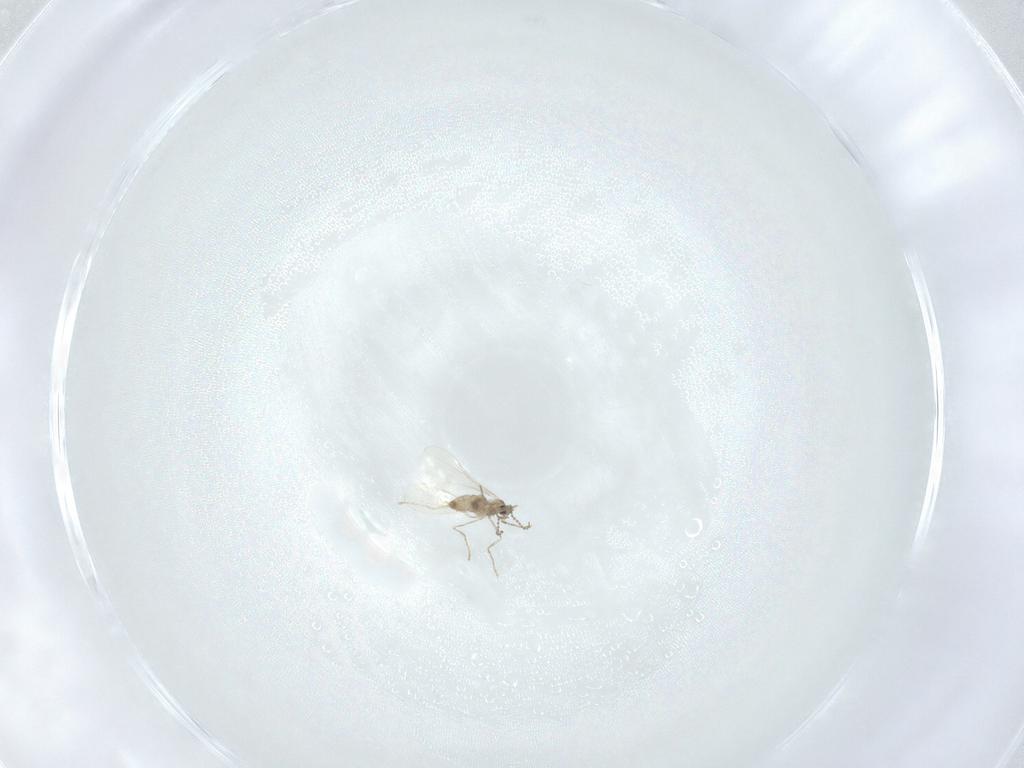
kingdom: Animalia
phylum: Arthropoda
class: Insecta
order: Diptera
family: Cecidomyiidae
